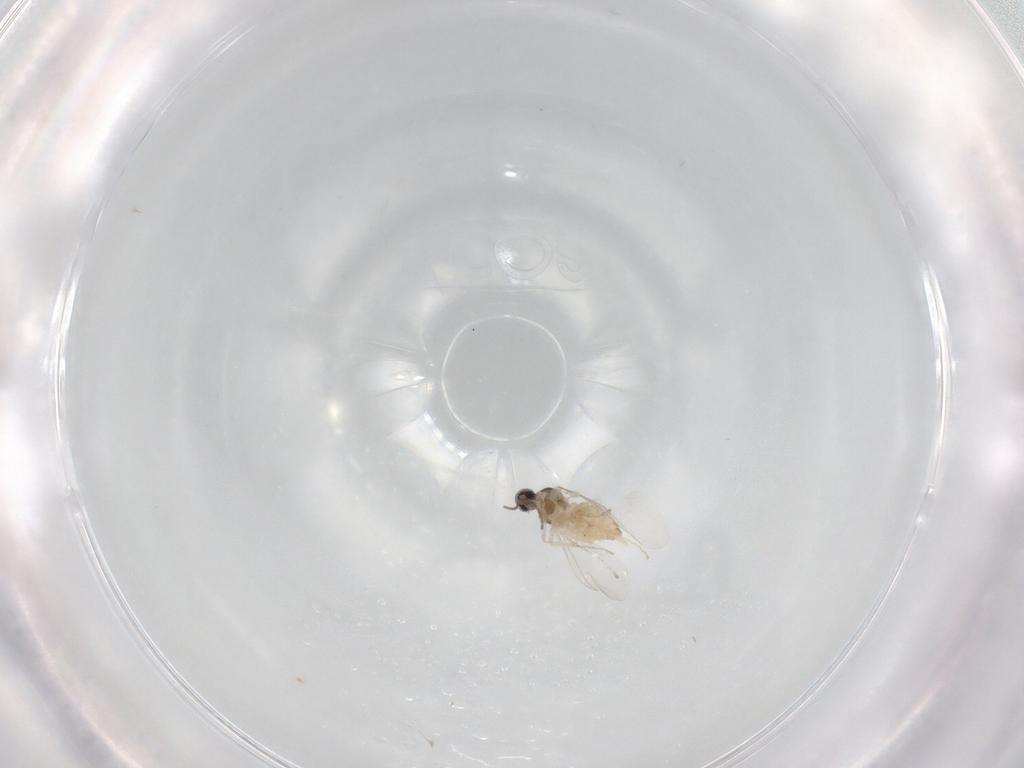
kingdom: Animalia
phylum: Arthropoda
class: Insecta
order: Diptera
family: Cecidomyiidae
